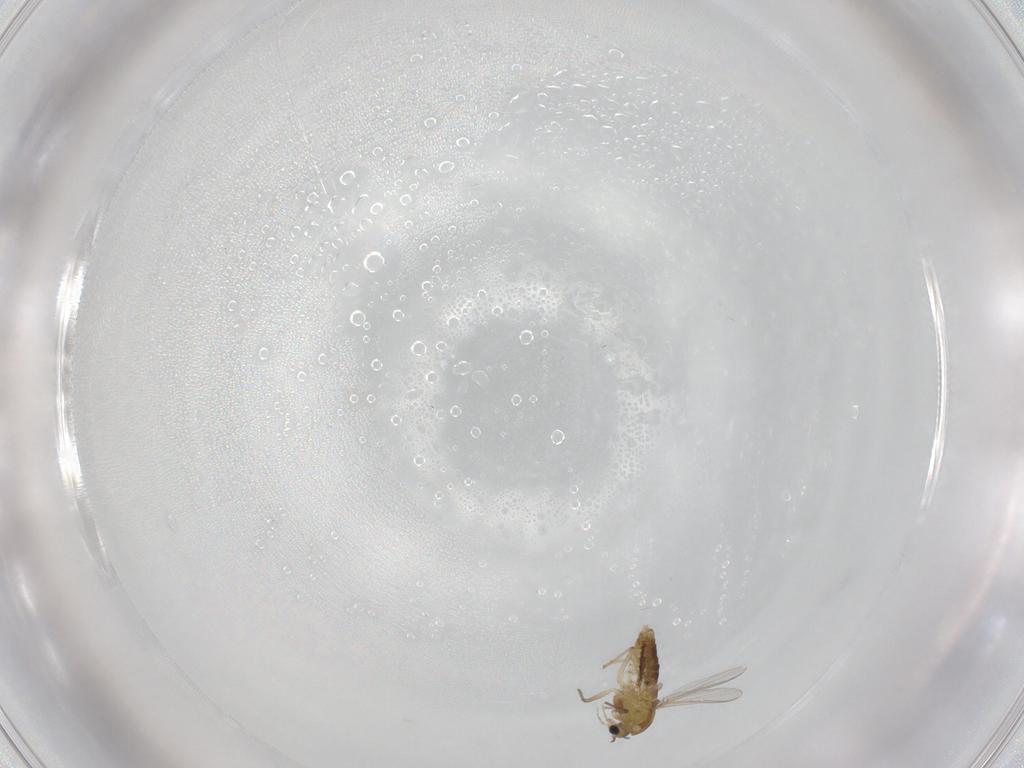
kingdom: Animalia
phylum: Arthropoda
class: Insecta
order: Diptera
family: Chironomidae
